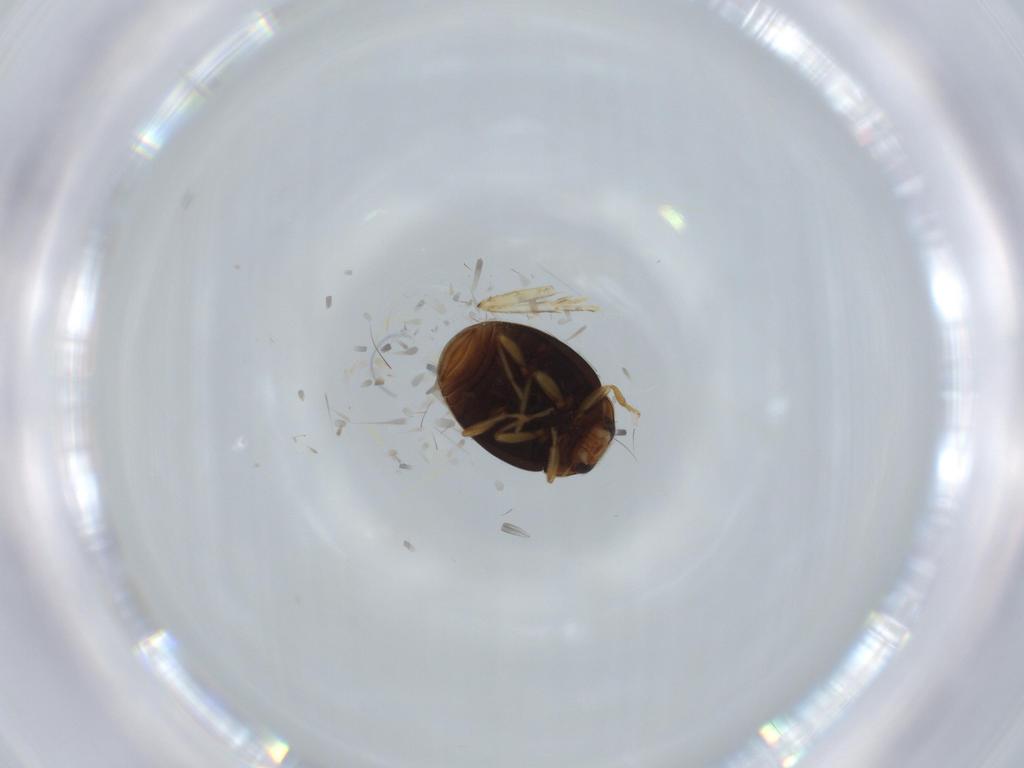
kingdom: Animalia
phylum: Arthropoda
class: Insecta
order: Coleoptera
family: Coccinellidae
